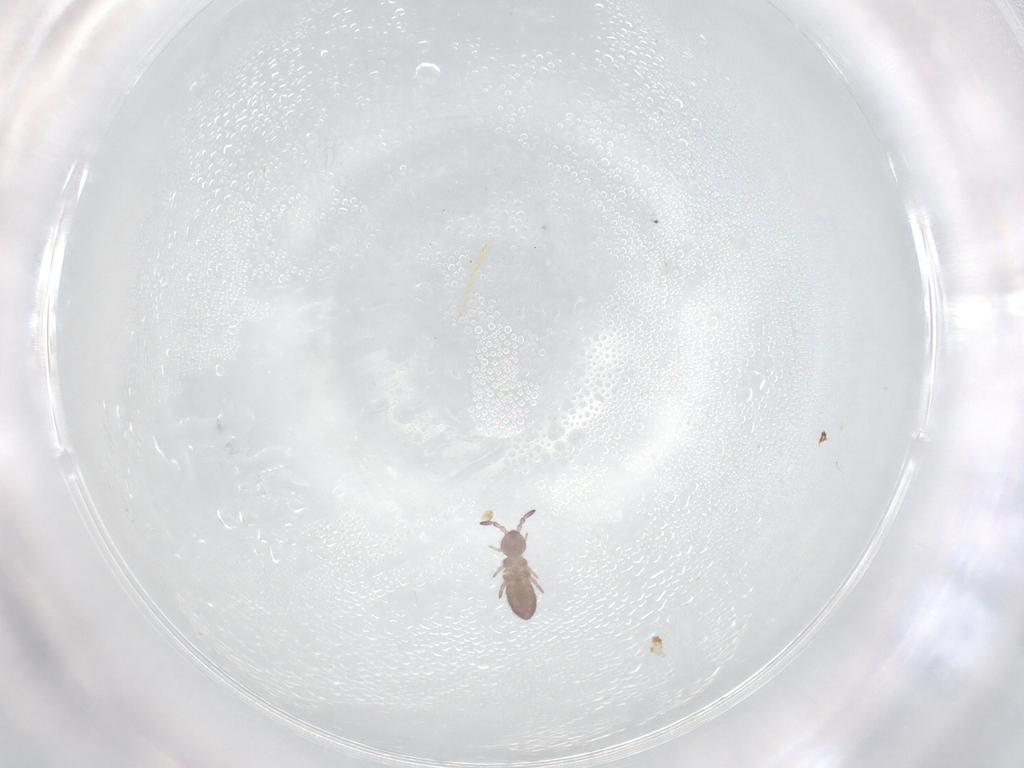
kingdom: Animalia
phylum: Arthropoda
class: Collembola
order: Entomobryomorpha
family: Isotomidae
